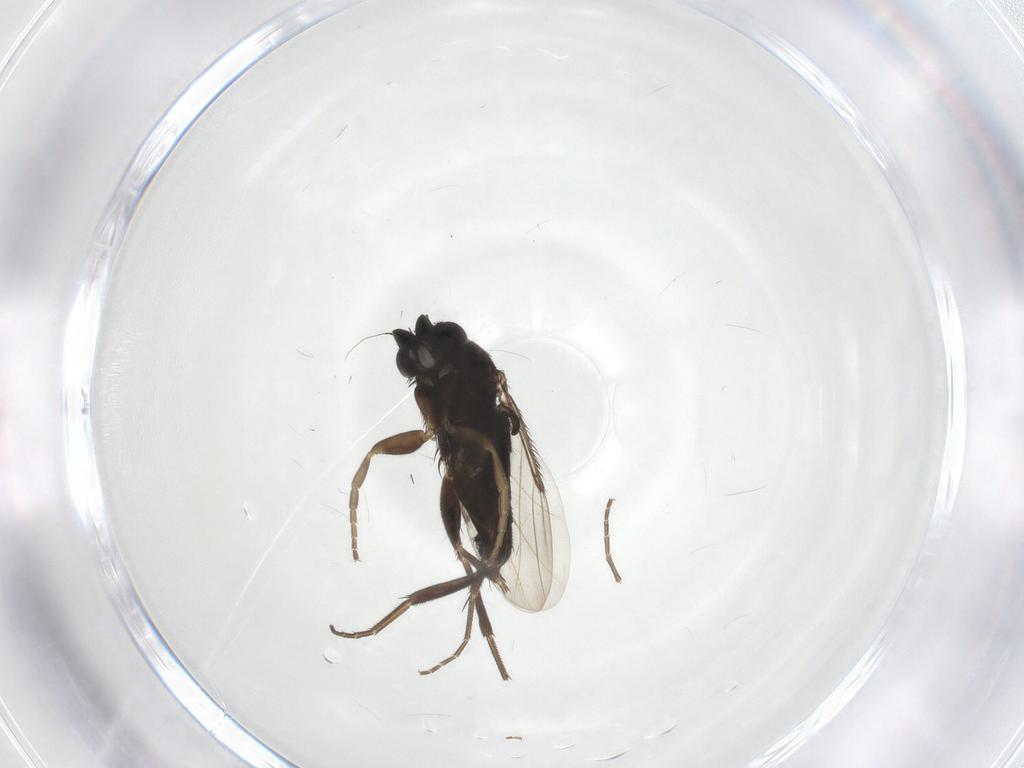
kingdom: Animalia
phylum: Arthropoda
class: Insecta
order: Diptera
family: Phoridae
